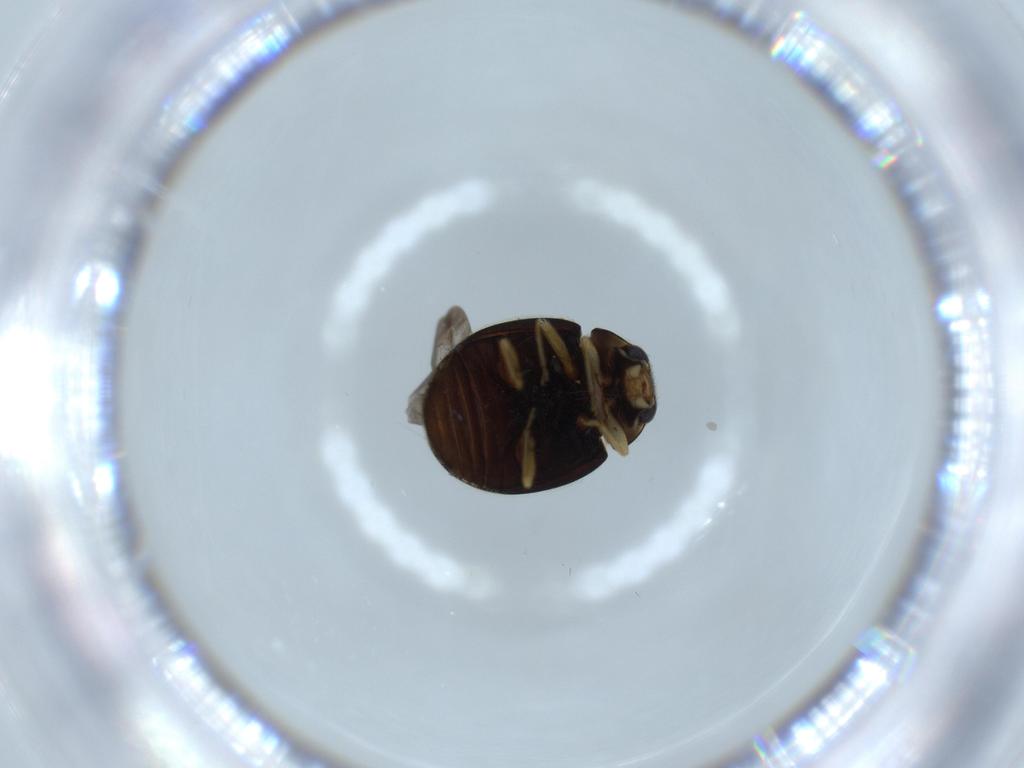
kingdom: Animalia
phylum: Arthropoda
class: Insecta
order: Coleoptera
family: Coccinellidae
